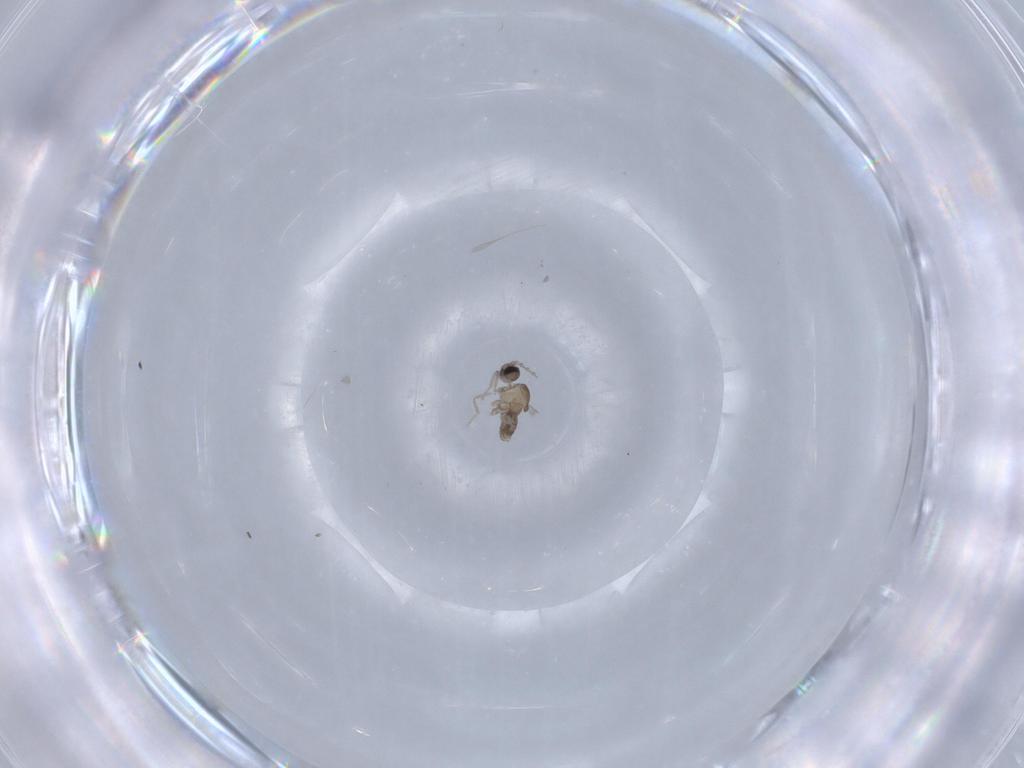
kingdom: Animalia
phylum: Arthropoda
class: Insecta
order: Diptera
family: Cecidomyiidae
